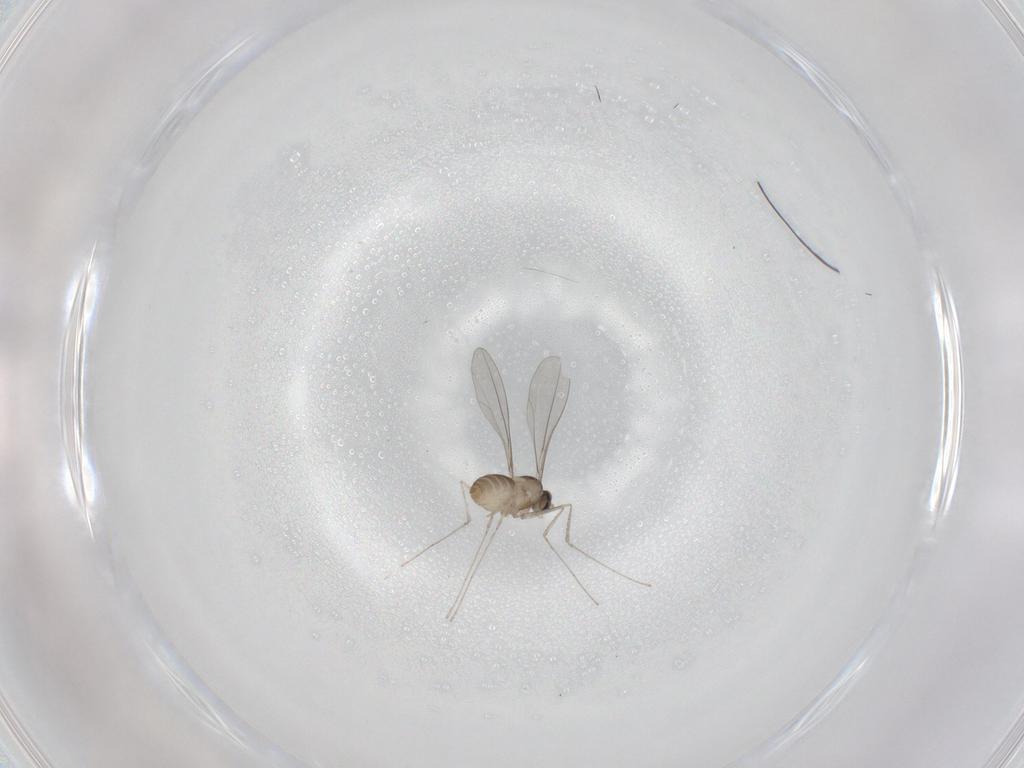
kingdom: Animalia
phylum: Arthropoda
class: Insecta
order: Diptera
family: Cecidomyiidae
